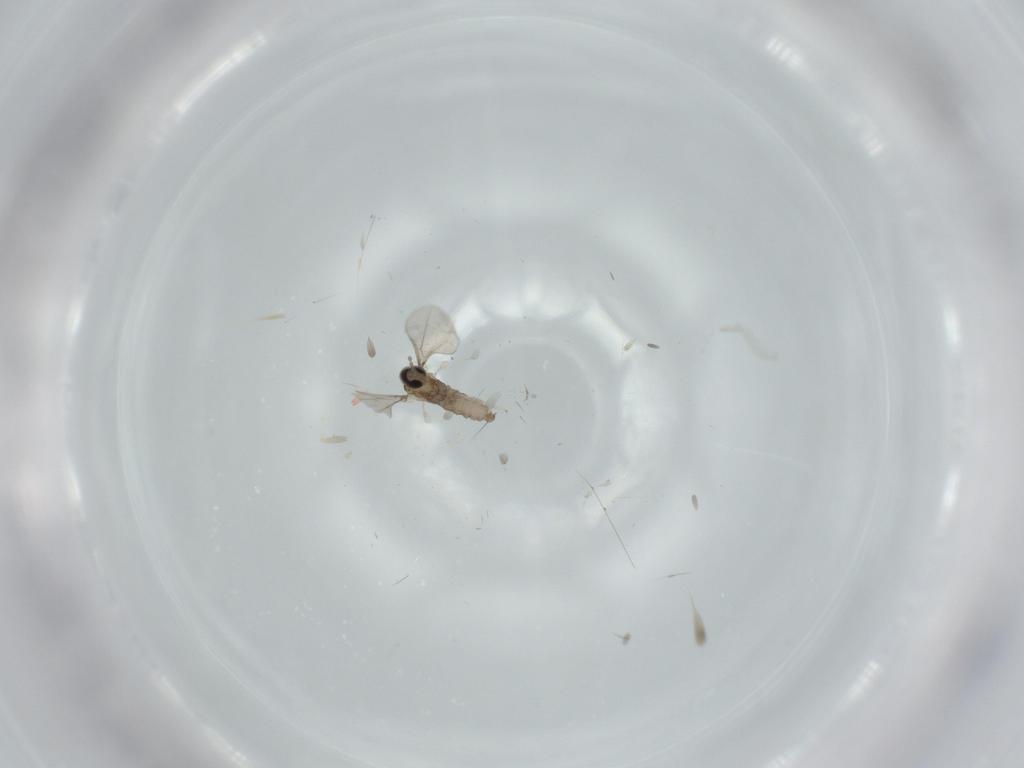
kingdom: Animalia
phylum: Arthropoda
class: Insecta
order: Diptera
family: Cecidomyiidae
